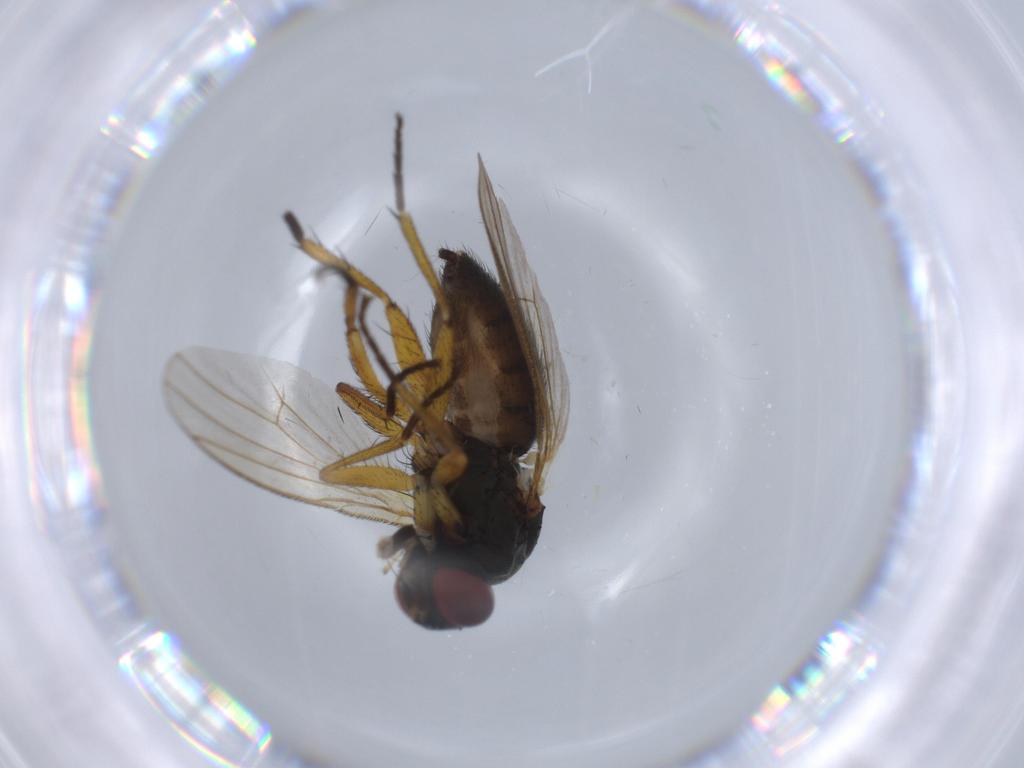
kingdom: Animalia
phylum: Arthropoda
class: Insecta
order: Diptera
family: Muscidae
